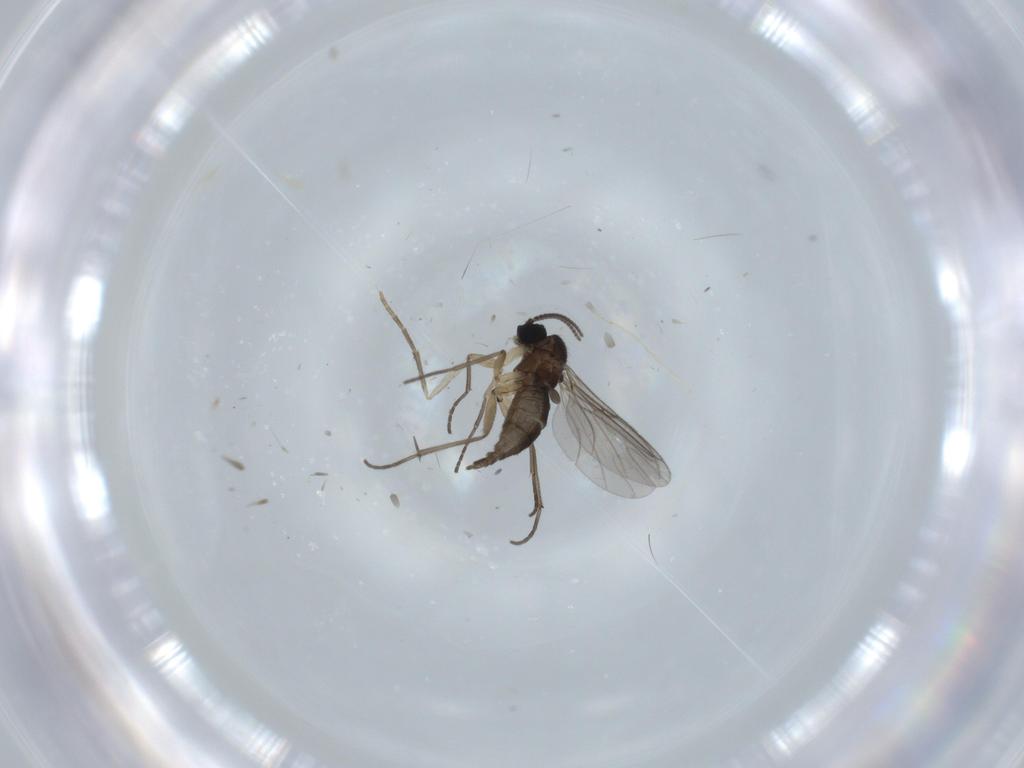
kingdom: Animalia
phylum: Arthropoda
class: Insecta
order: Diptera
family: Sciaridae
